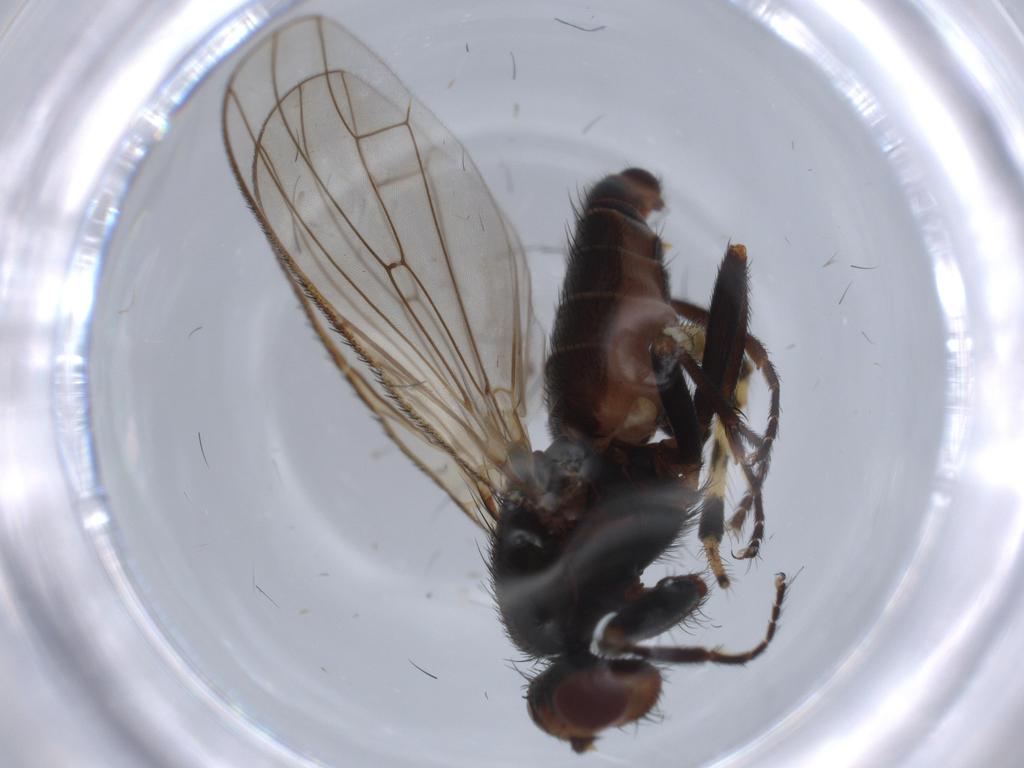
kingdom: Animalia
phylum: Arthropoda
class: Insecta
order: Diptera
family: Heleomyzidae
